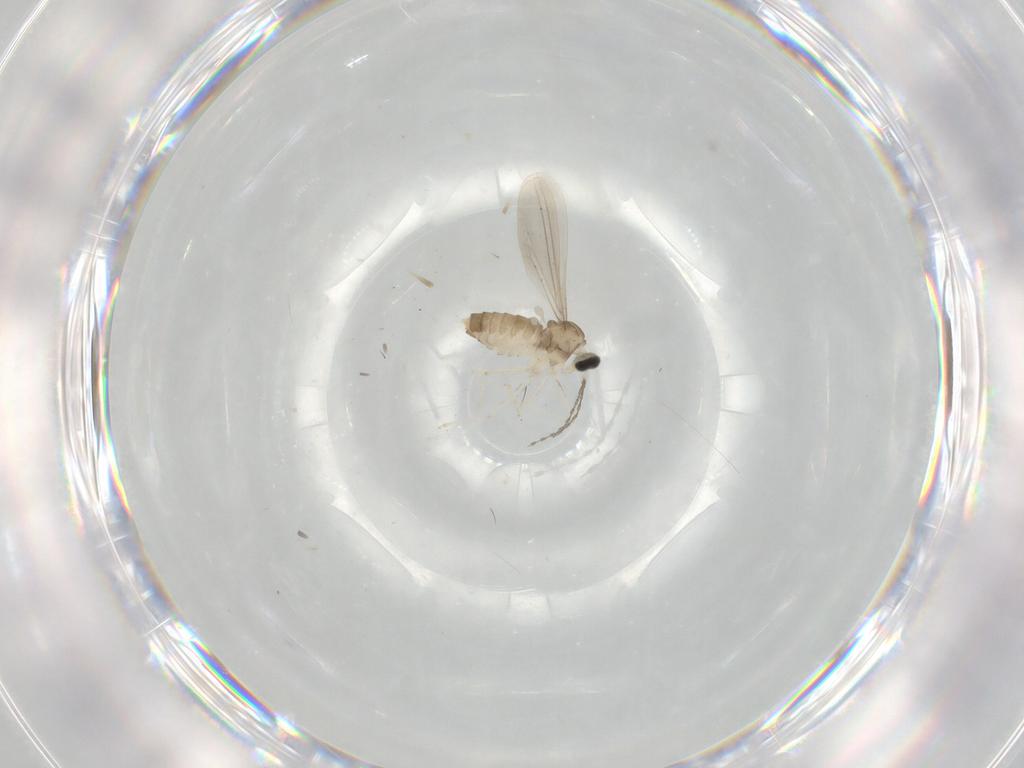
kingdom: Animalia
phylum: Arthropoda
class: Insecta
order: Diptera
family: Cecidomyiidae
